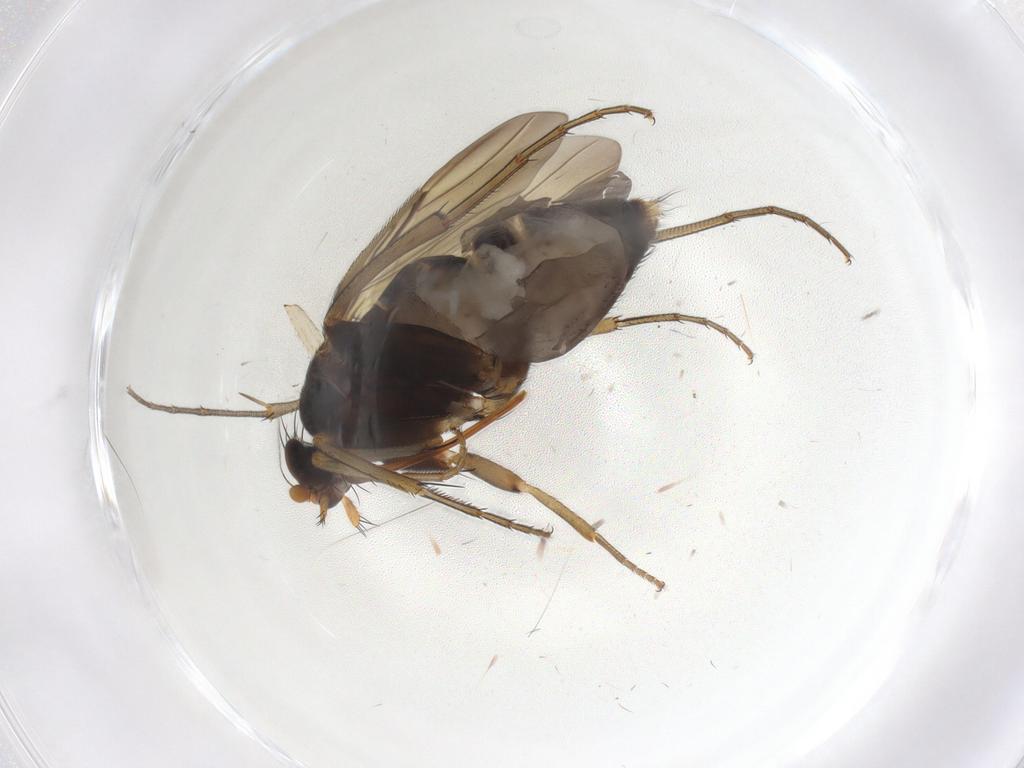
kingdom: Animalia
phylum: Arthropoda
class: Insecta
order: Diptera
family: Phoridae
